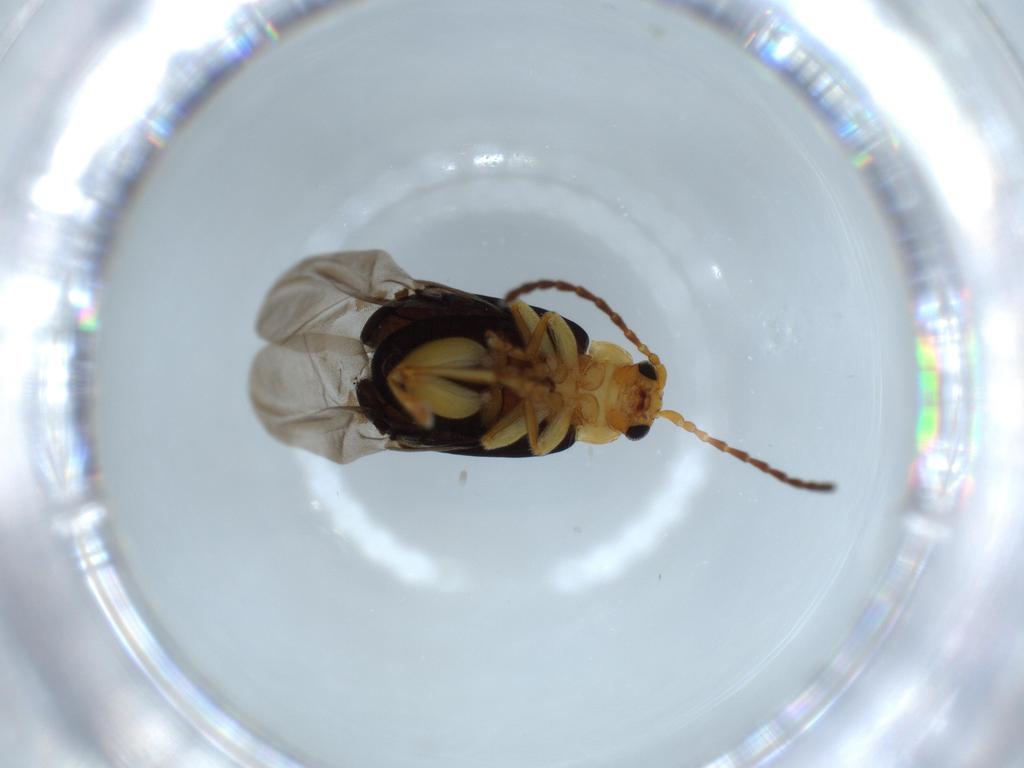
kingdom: Animalia
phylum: Arthropoda
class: Insecta
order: Coleoptera
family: Chrysomelidae
